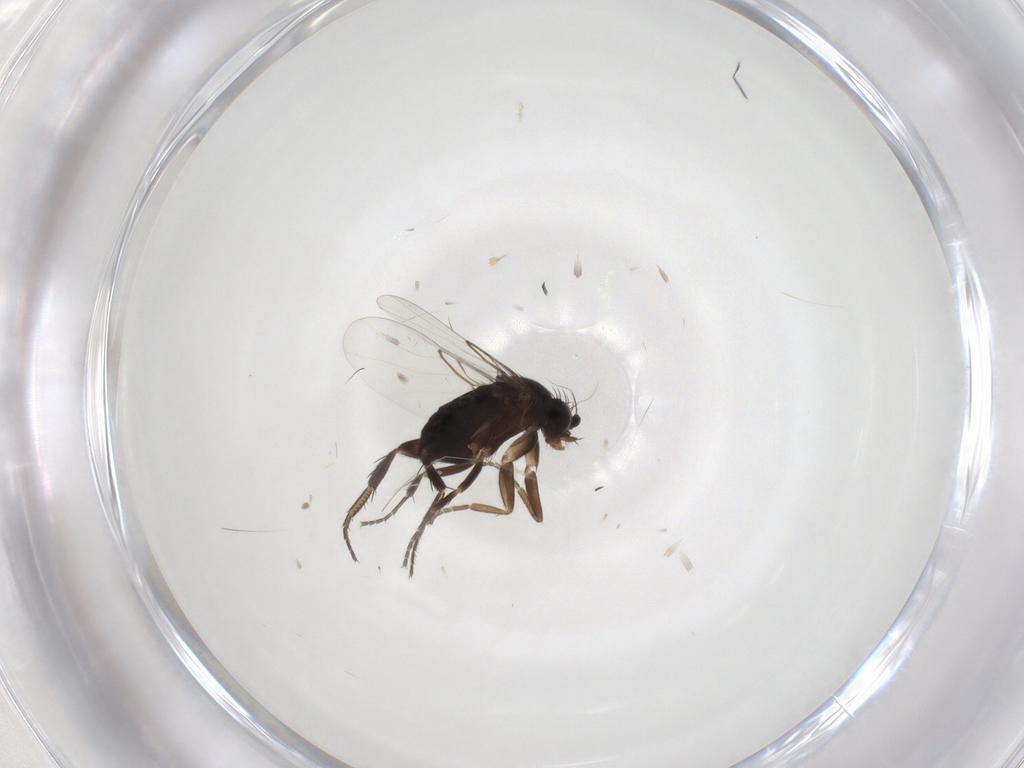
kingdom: Animalia
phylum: Arthropoda
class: Insecta
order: Diptera
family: Phoridae
